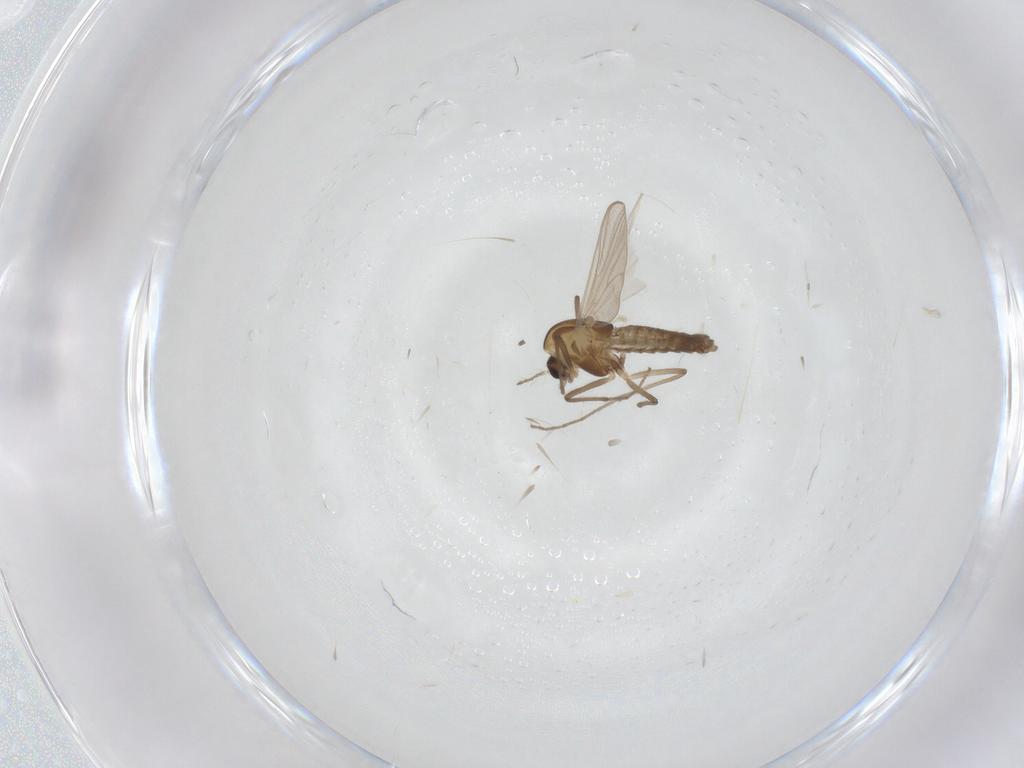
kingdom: Animalia
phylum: Arthropoda
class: Insecta
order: Diptera
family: Chironomidae
